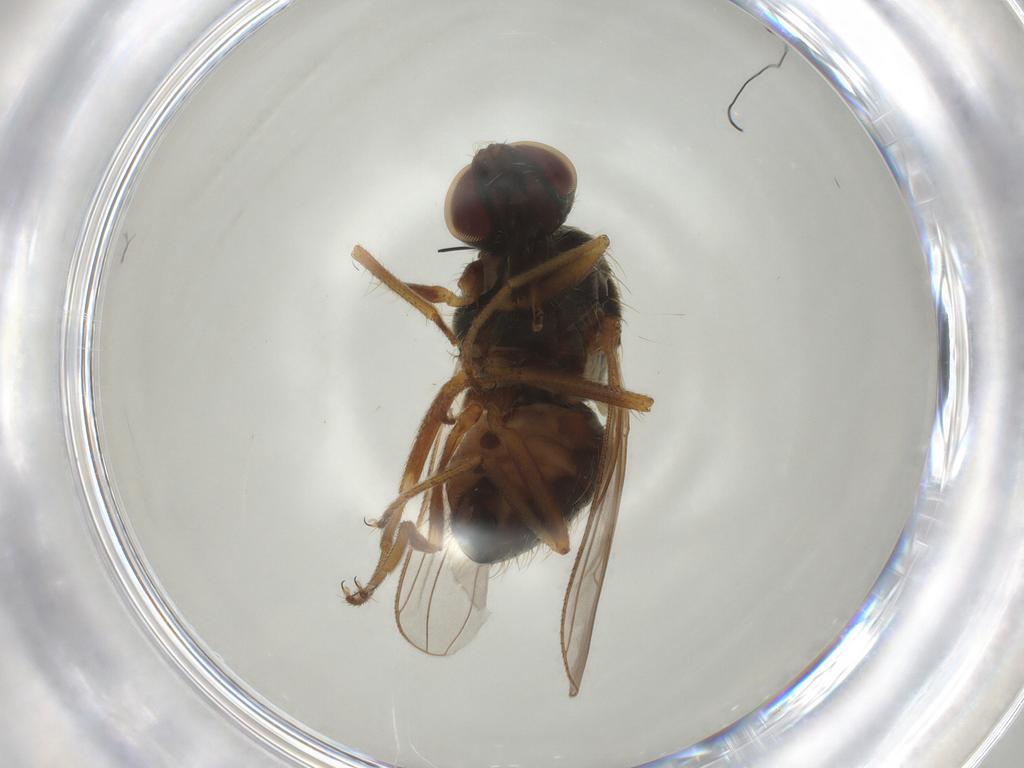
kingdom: Animalia
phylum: Arthropoda
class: Insecta
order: Diptera
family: Muscidae
